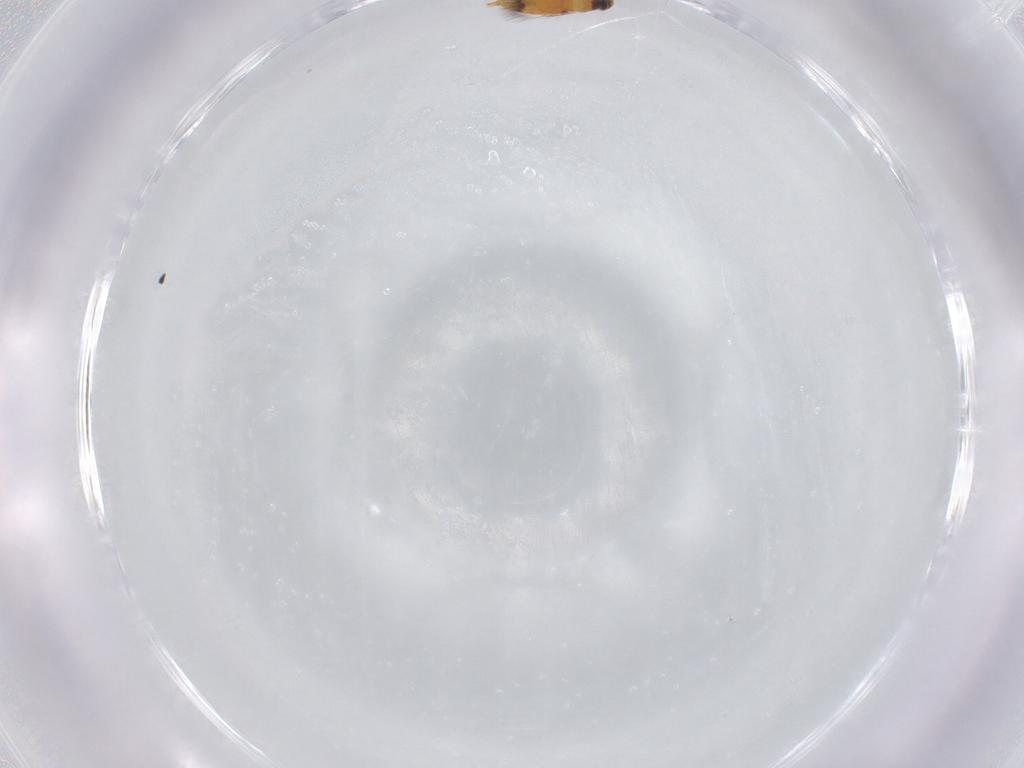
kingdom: Animalia
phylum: Arthropoda
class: Insecta
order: Hymenoptera
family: Signiphoridae
